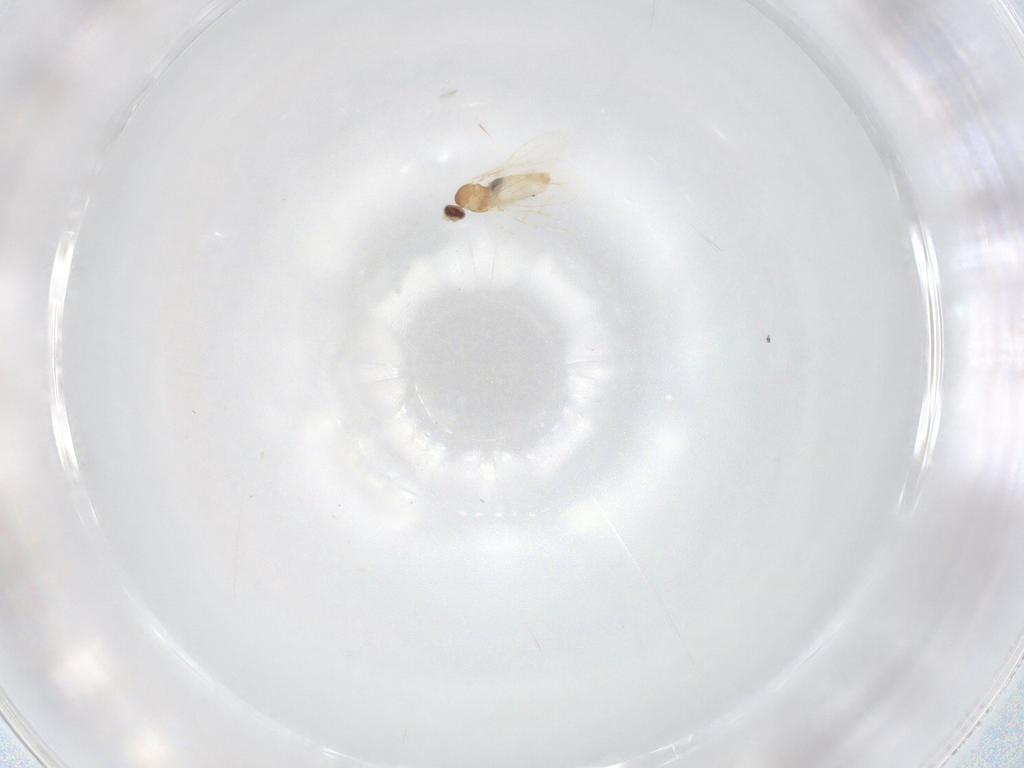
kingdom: Animalia
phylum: Arthropoda
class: Insecta
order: Diptera
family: Cecidomyiidae
